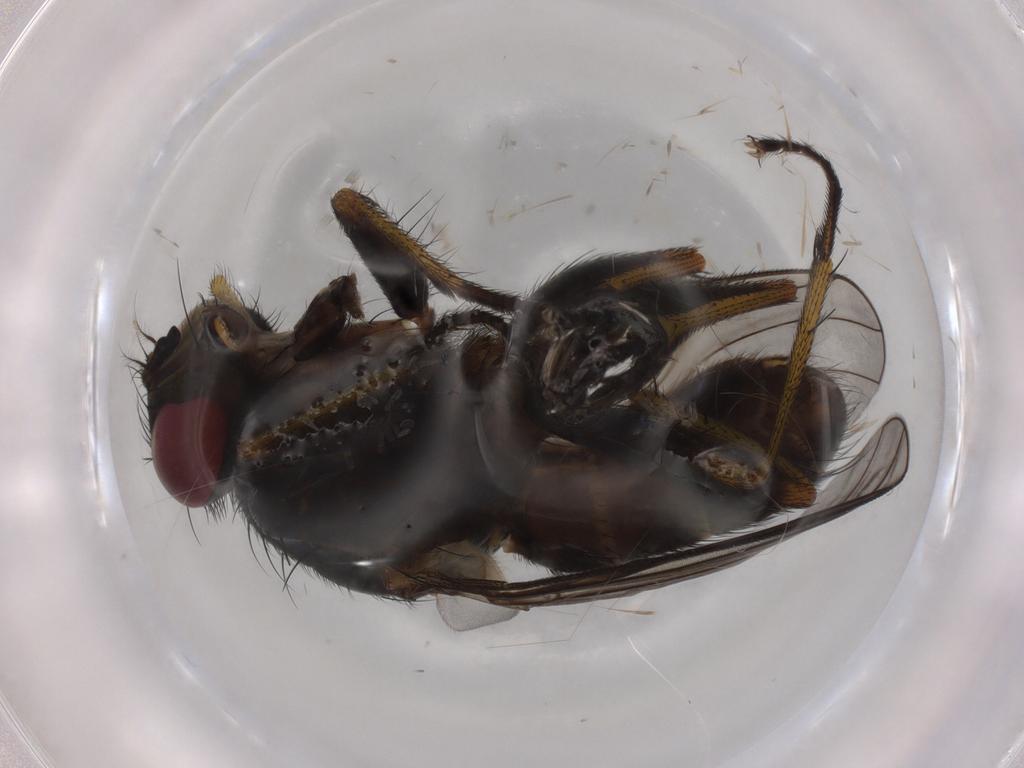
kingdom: Animalia
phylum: Arthropoda
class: Insecta
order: Diptera
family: Muscidae
